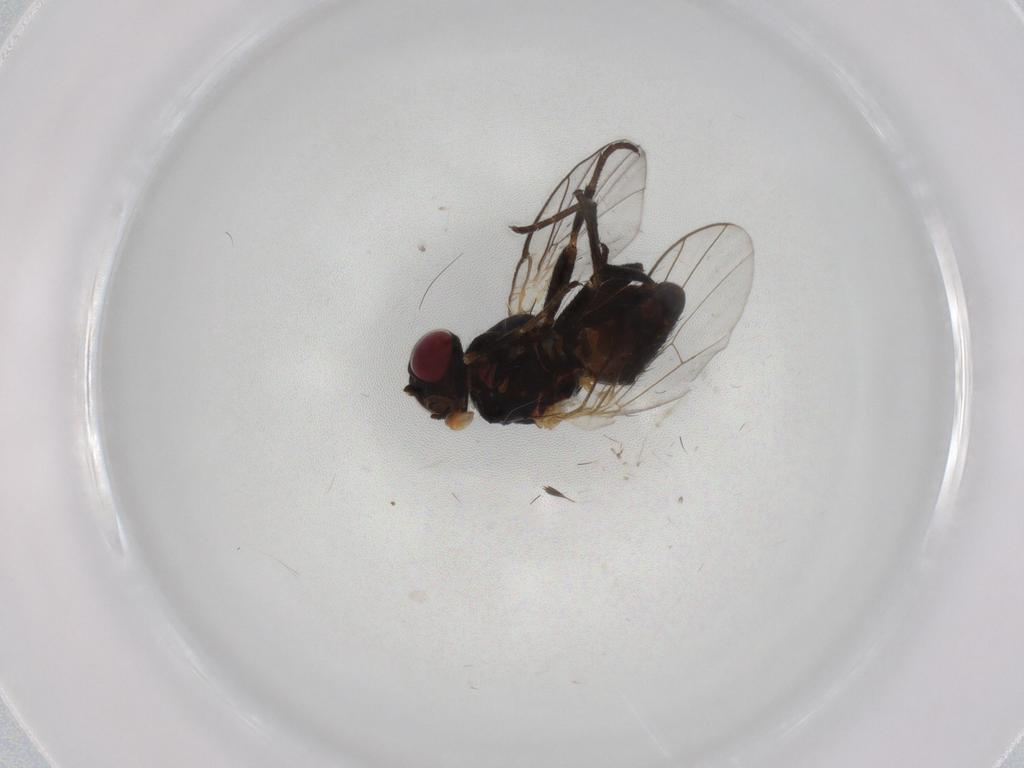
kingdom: Animalia
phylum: Arthropoda
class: Insecta
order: Diptera
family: Agromyzidae
